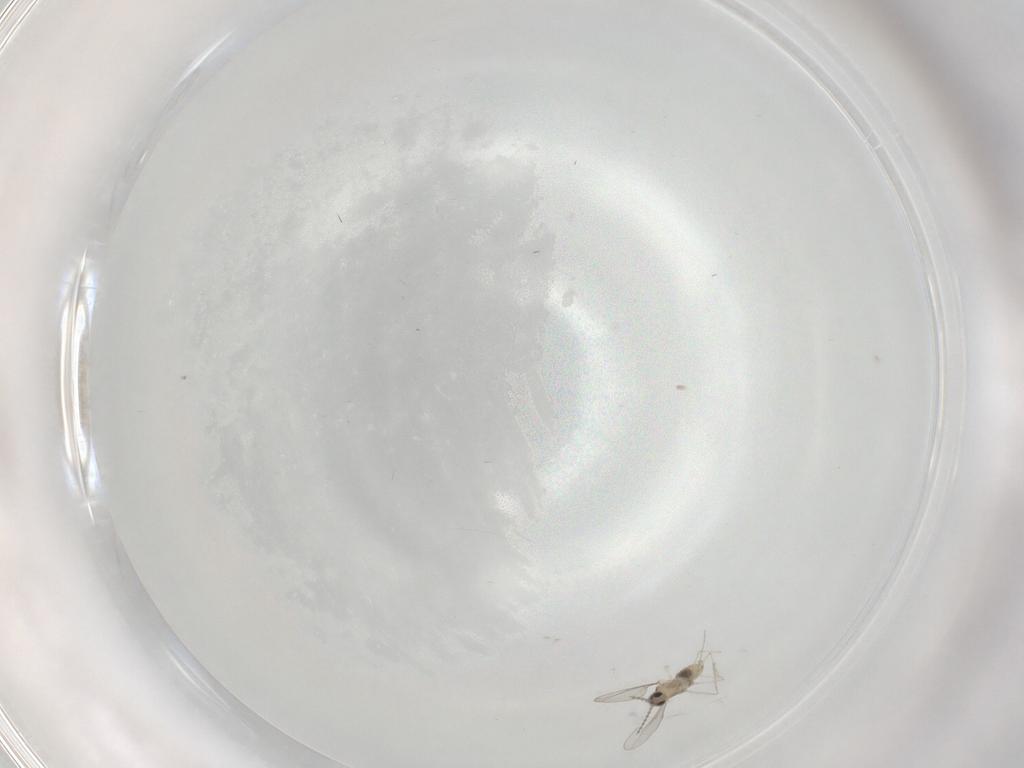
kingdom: Animalia
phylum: Arthropoda
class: Insecta
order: Diptera
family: Cecidomyiidae
